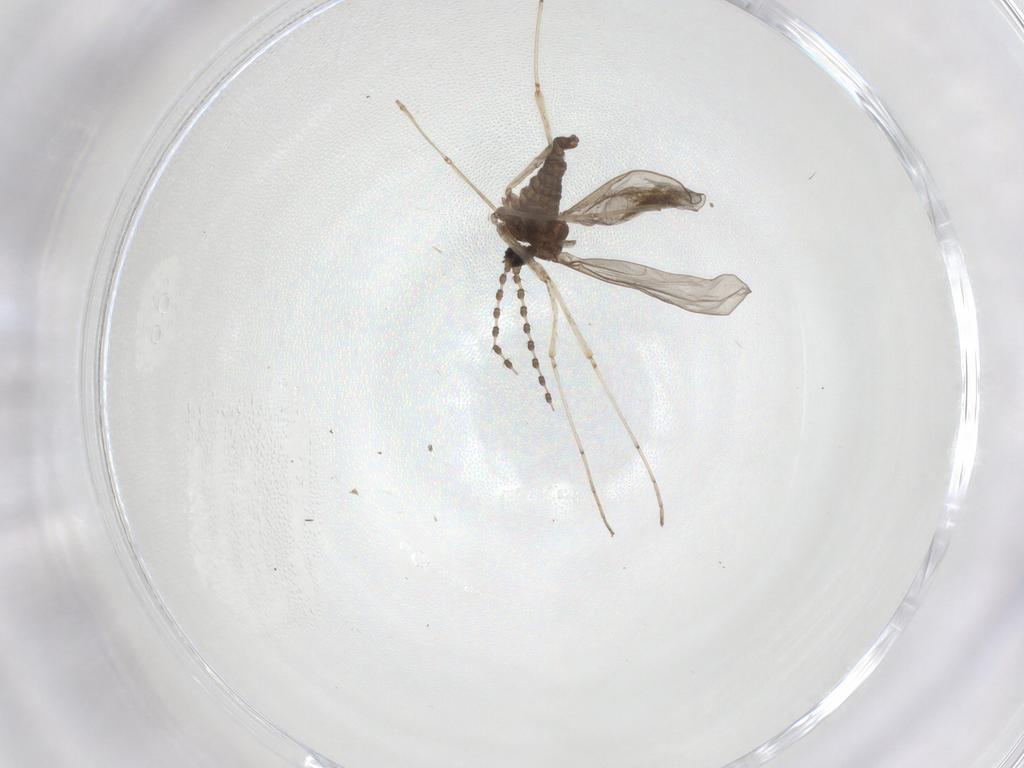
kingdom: Animalia
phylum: Arthropoda
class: Insecta
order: Diptera
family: Cecidomyiidae
